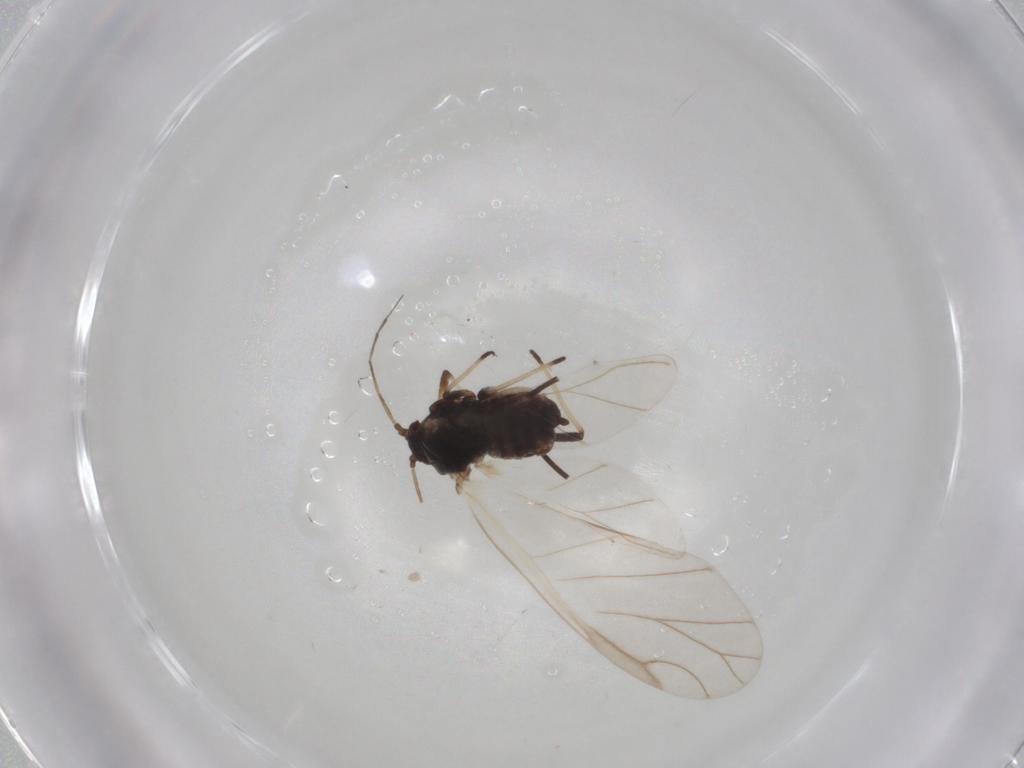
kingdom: Animalia
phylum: Arthropoda
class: Insecta
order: Hemiptera
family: Aphididae
